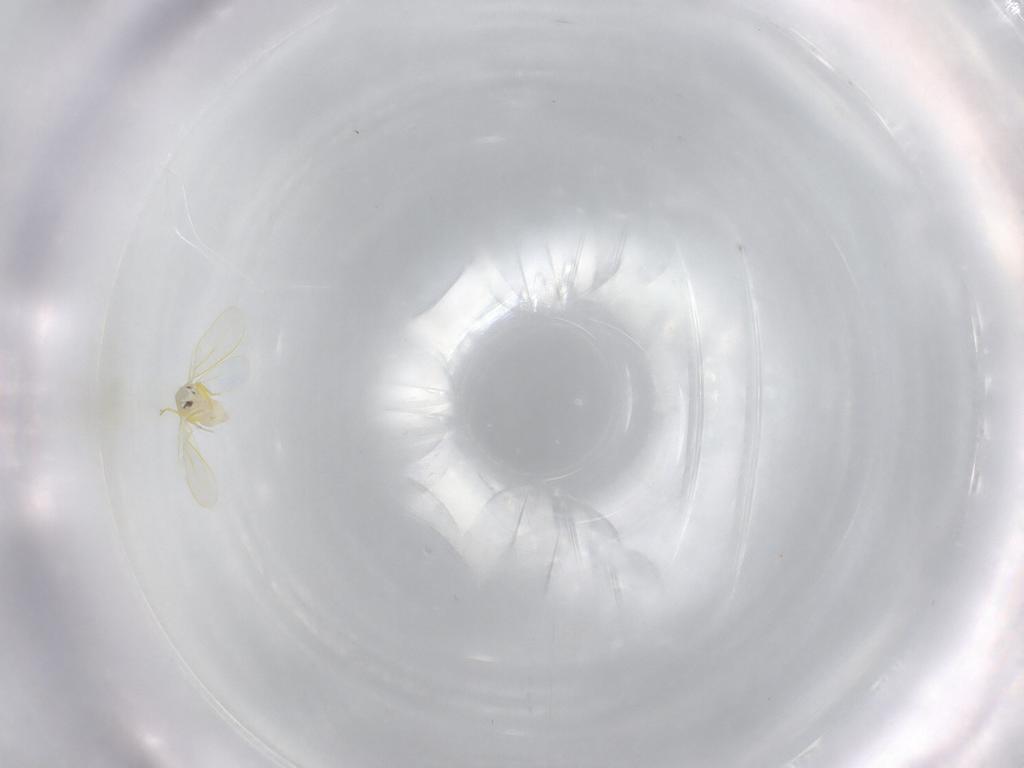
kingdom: Animalia
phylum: Arthropoda
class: Insecta
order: Hemiptera
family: Aleyrodidae
